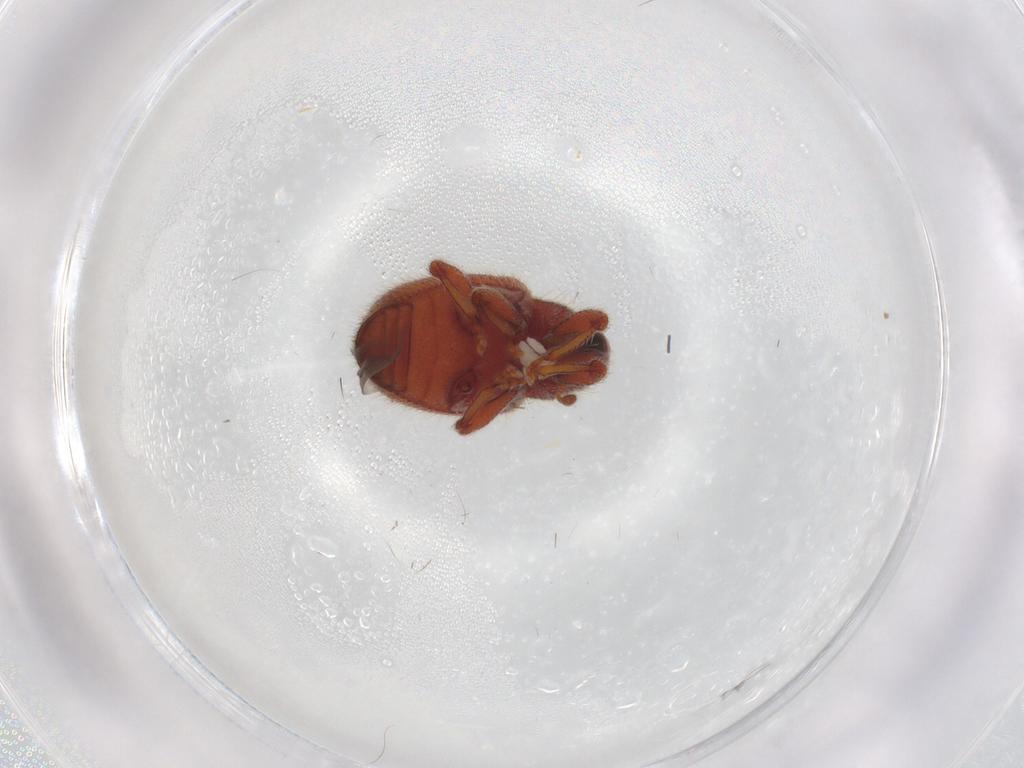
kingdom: Animalia
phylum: Arthropoda
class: Insecta
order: Coleoptera
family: Curculionidae
